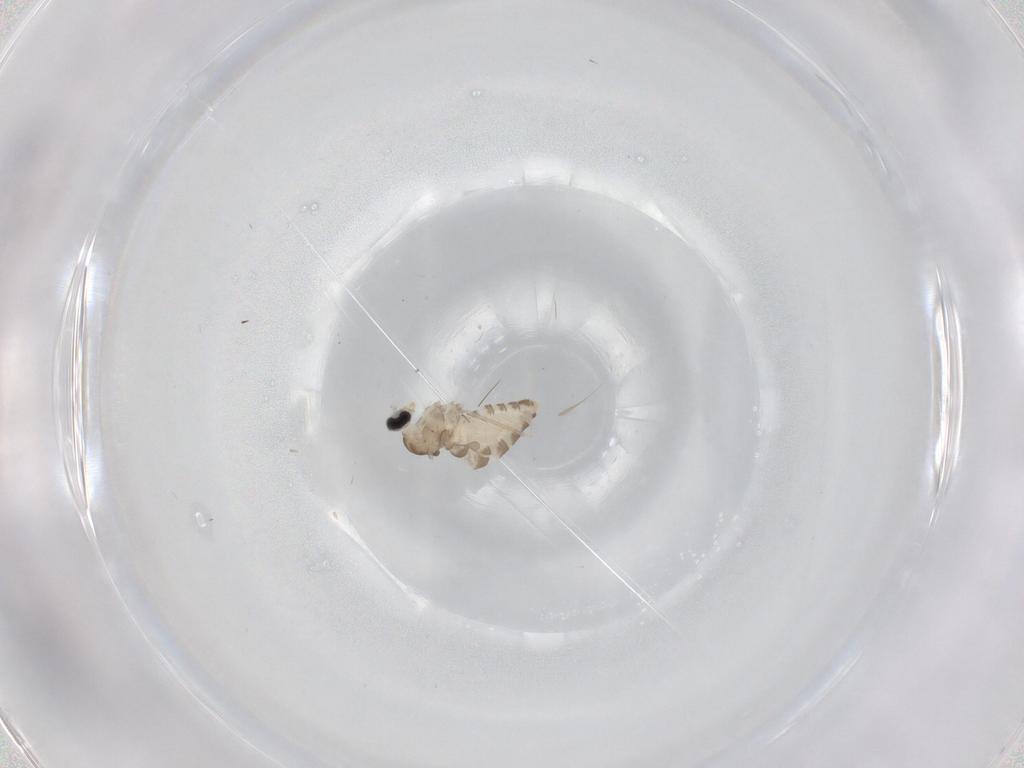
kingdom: Animalia
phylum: Arthropoda
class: Insecta
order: Diptera
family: Cecidomyiidae
